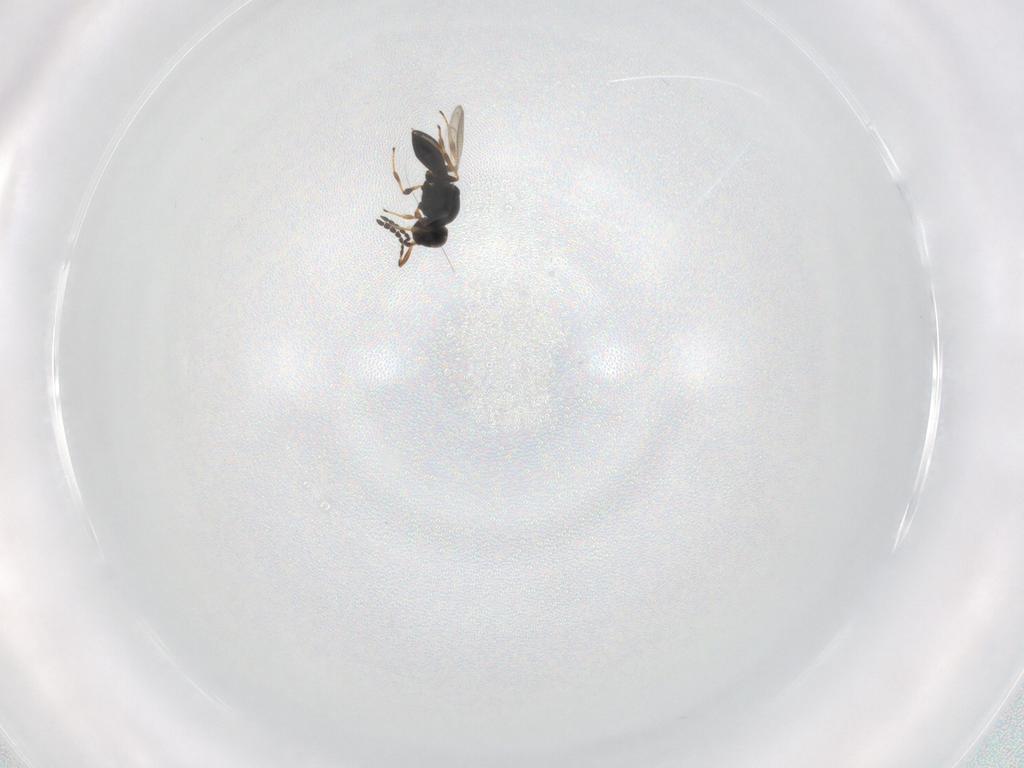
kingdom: Animalia
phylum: Arthropoda
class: Insecta
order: Hymenoptera
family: Platygastridae
